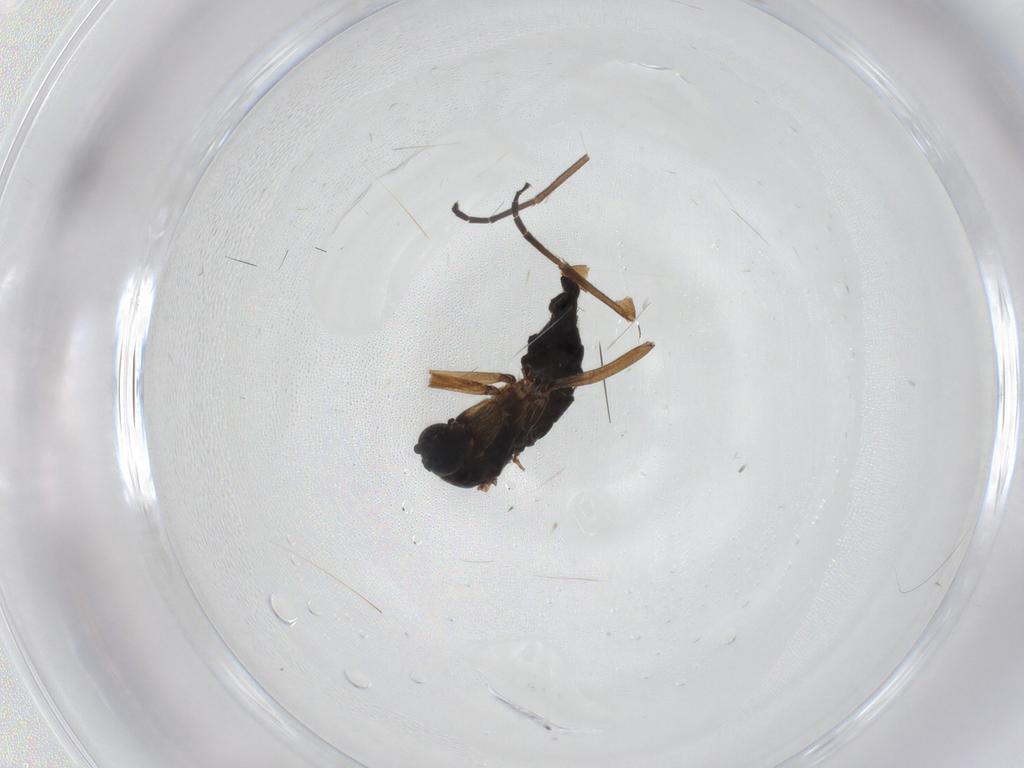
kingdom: Animalia
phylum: Arthropoda
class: Insecta
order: Diptera
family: Sciaridae
